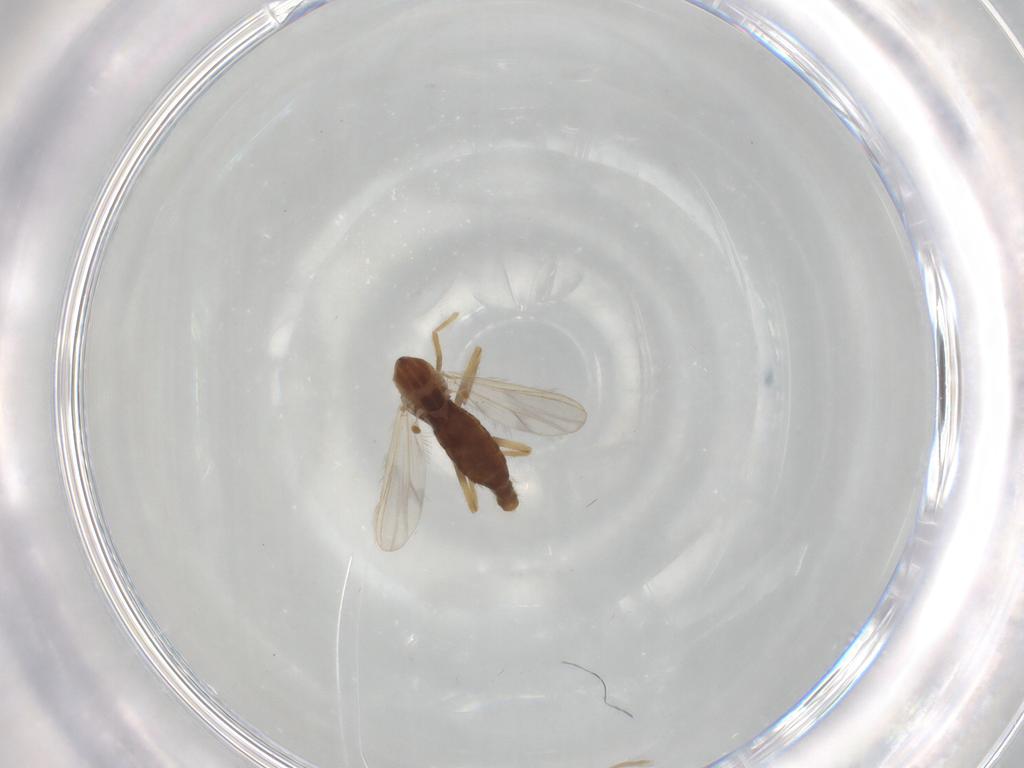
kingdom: Animalia
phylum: Arthropoda
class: Insecta
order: Diptera
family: Chironomidae
